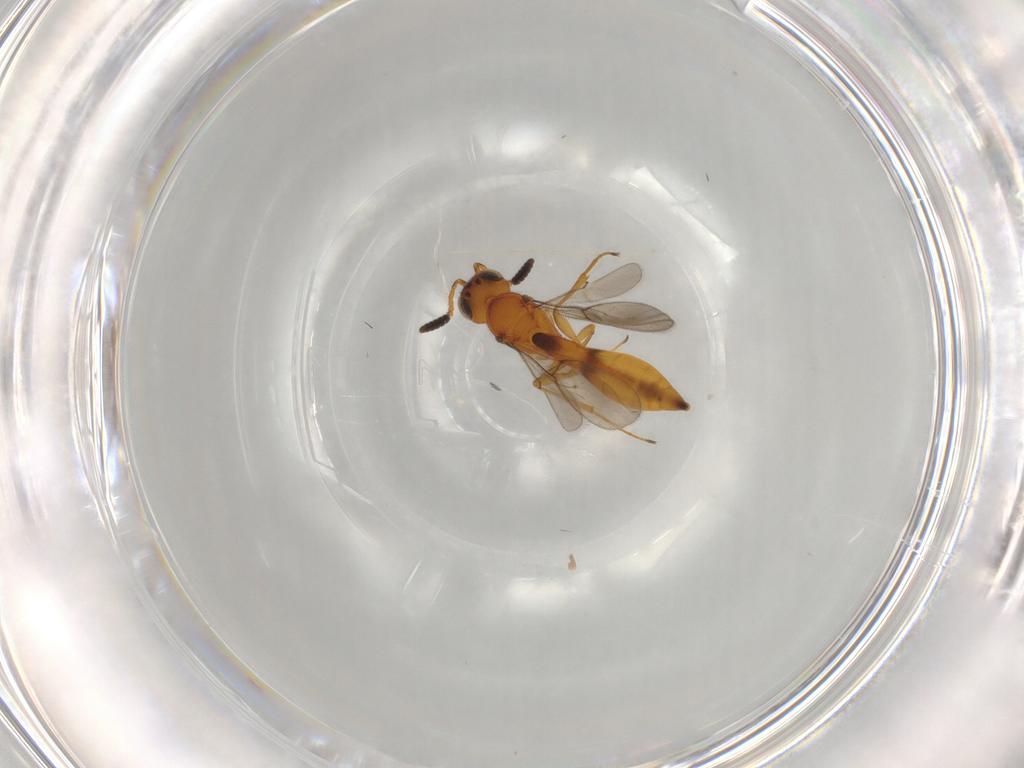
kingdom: Animalia
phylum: Arthropoda
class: Insecta
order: Hymenoptera
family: Scelionidae
